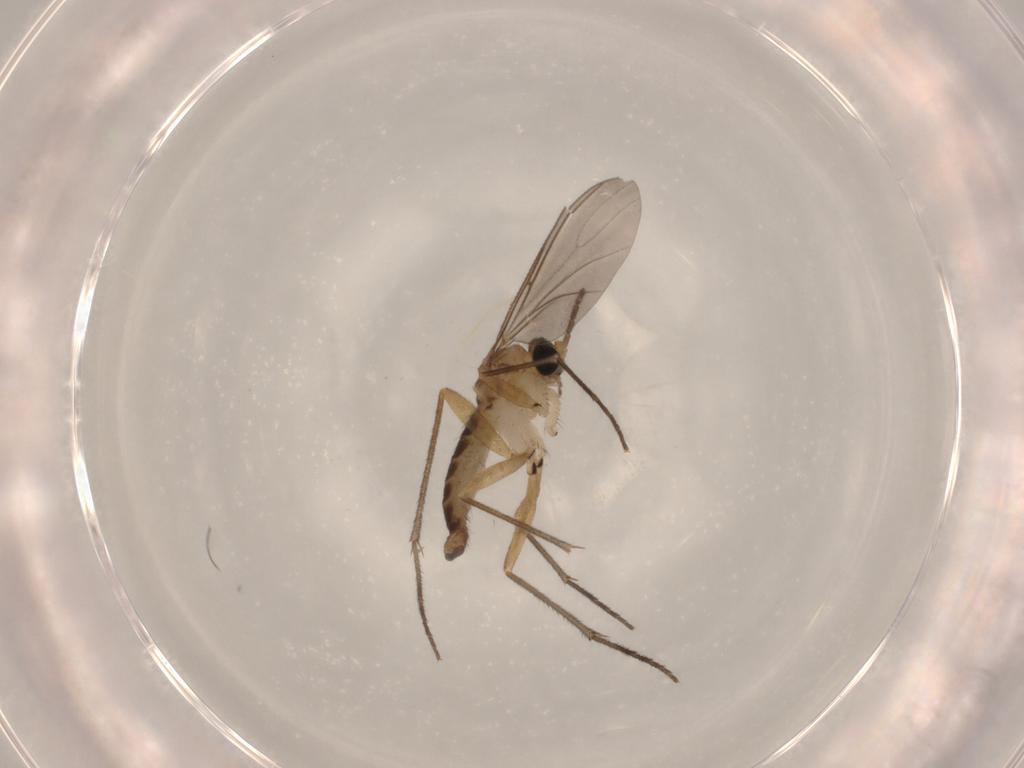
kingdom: Animalia
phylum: Arthropoda
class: Insecta
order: Diptera
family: Sciaridae
